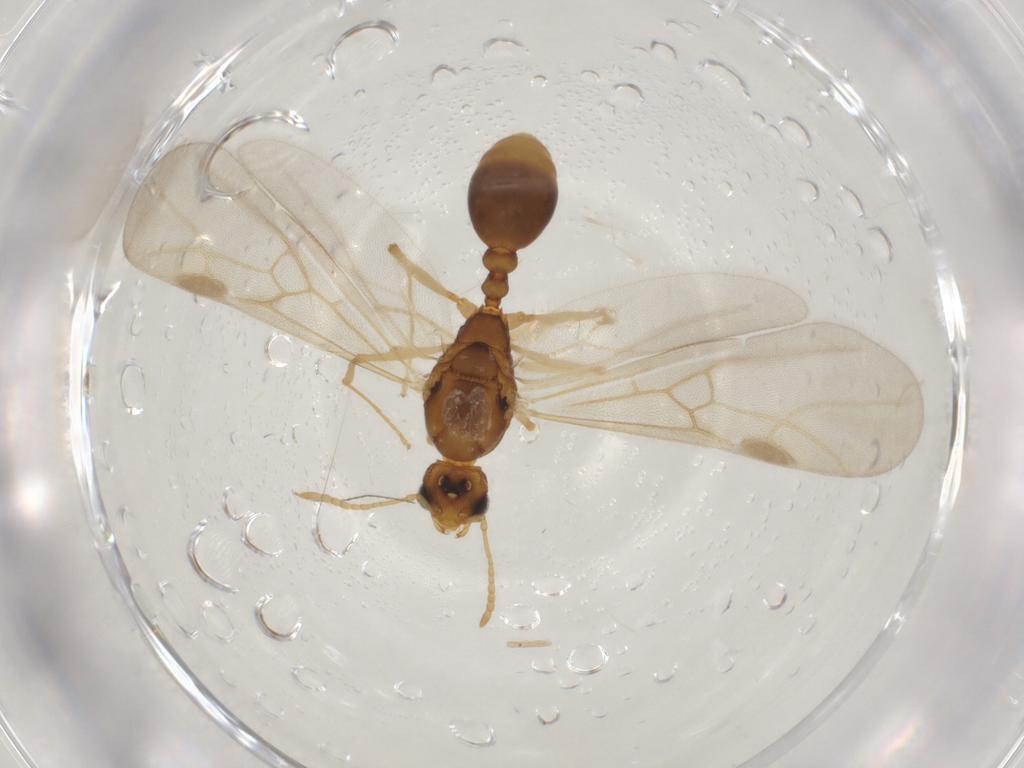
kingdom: Animalia
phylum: Arthropoda
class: Insecta
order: Hymenoptera
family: Formicidae
